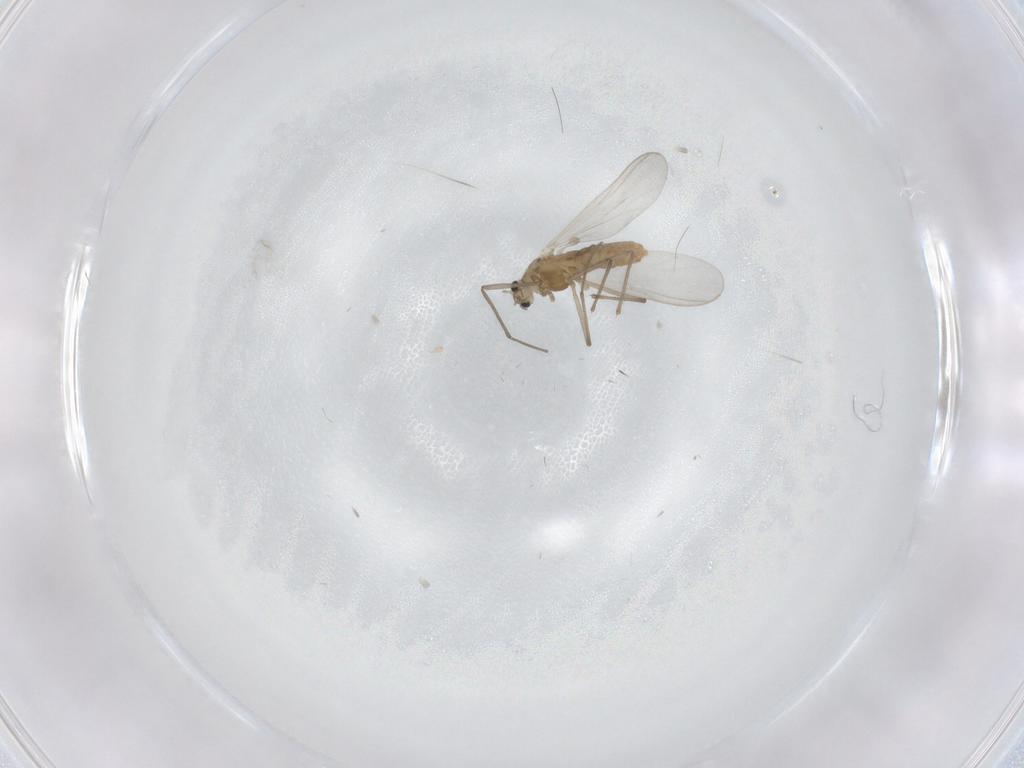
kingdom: Animalia
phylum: Arthropoda
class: Insecta
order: Diptera
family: Chironomidae
